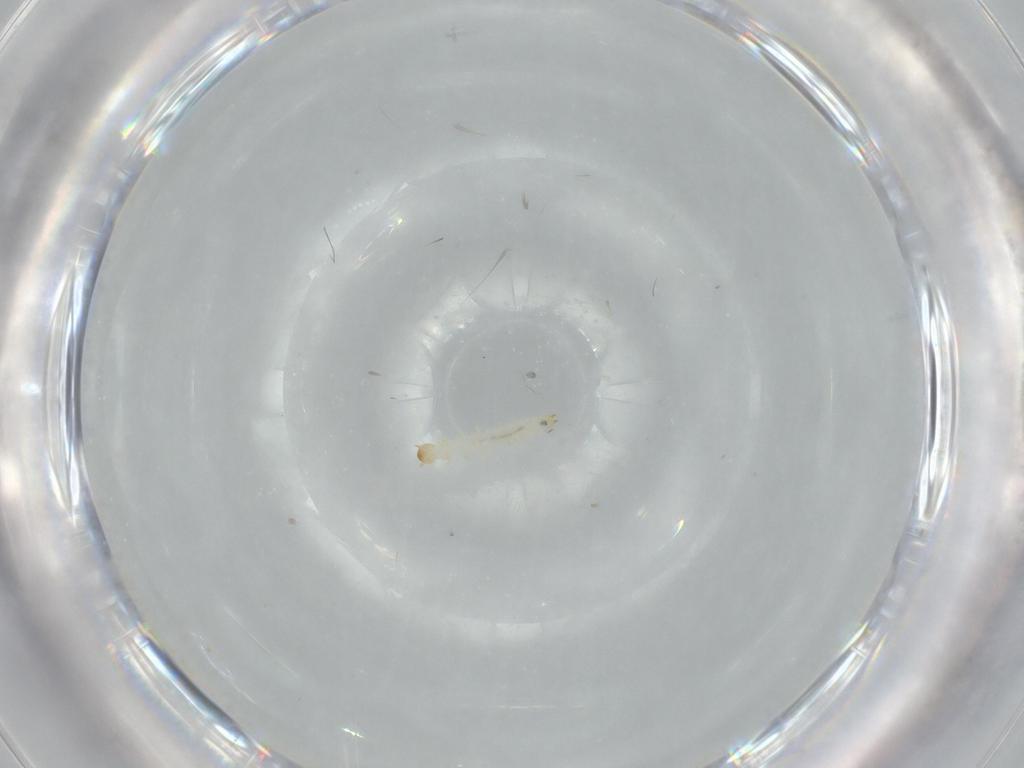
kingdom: Animalia
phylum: Arthropoda
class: Insecta
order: Coleoptera
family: Aderidae
